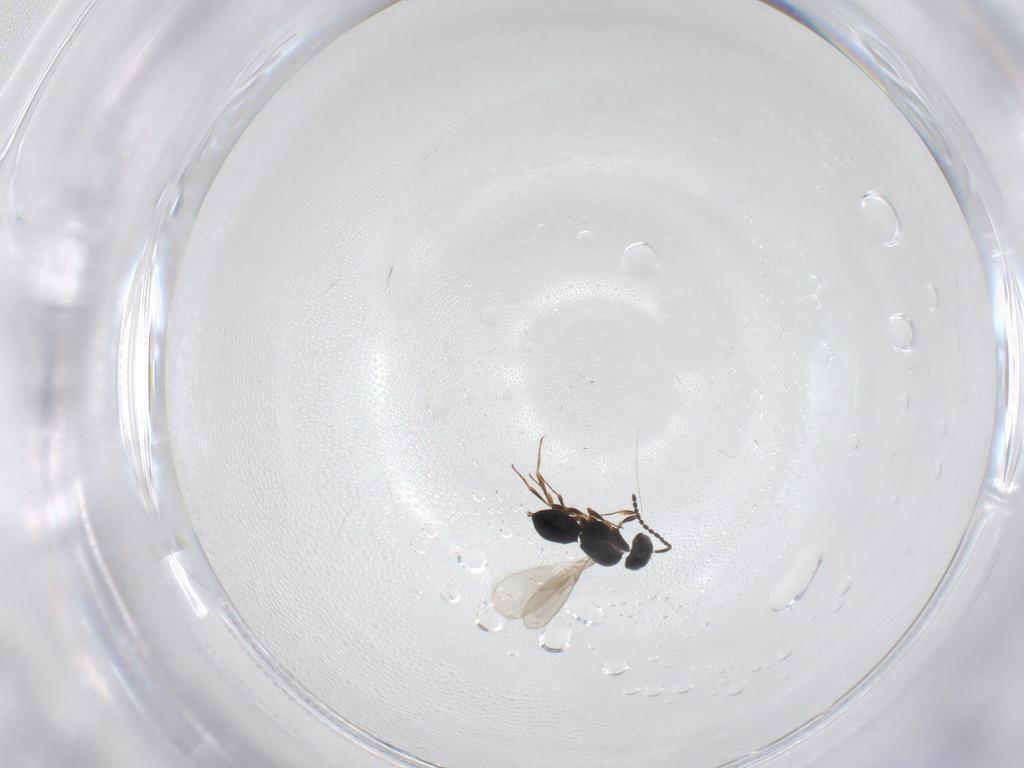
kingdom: Animalia
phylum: Arthropoda
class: Insecta
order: Hymenoptera
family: Scelionidae
